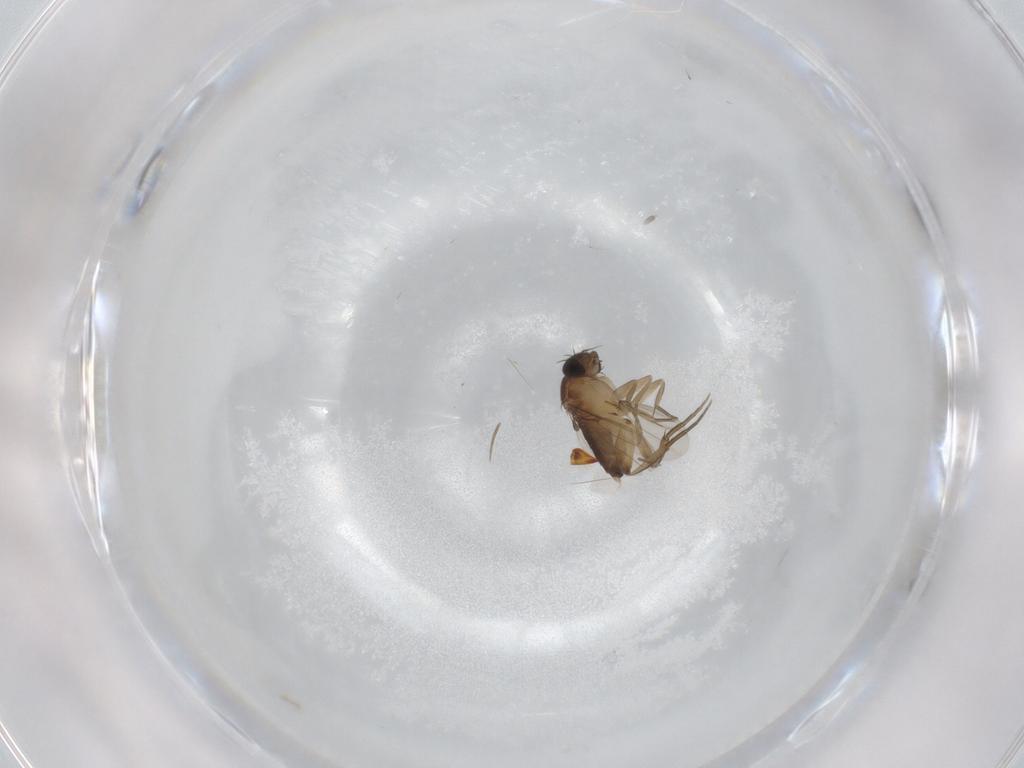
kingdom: Animalia
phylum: Arthropoda
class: Insecta
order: Diptera
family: Phoridae
